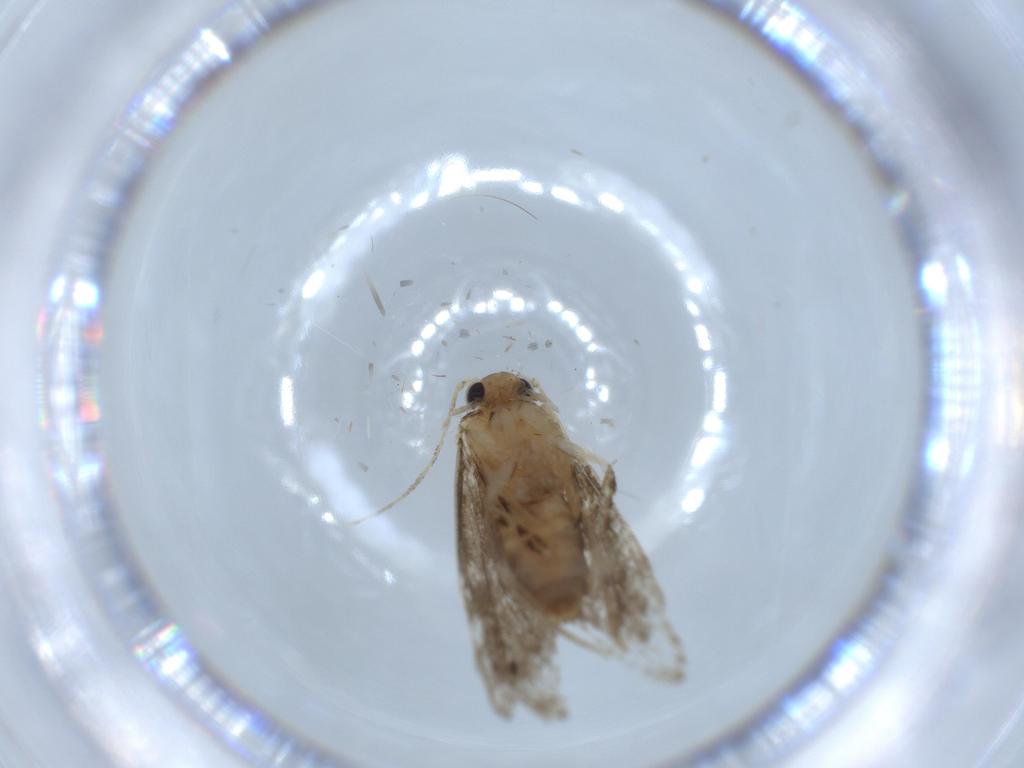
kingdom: Animalia
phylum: Arthropoda
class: Insecta
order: Lepidoptera
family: Tineidae
